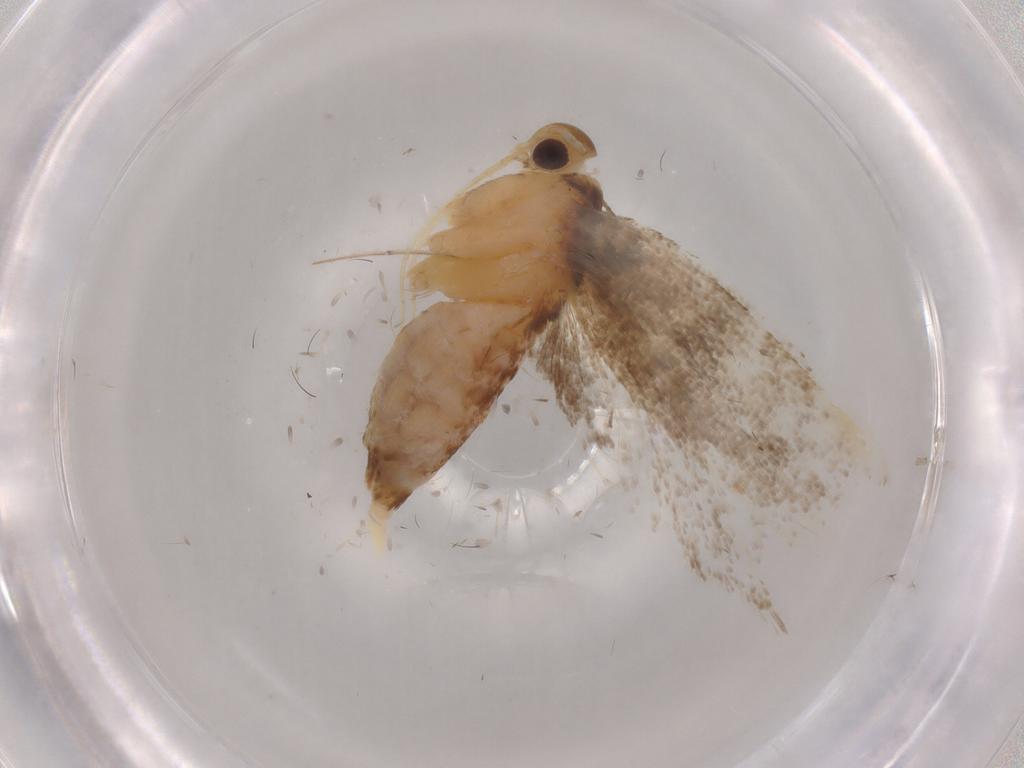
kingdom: Animalia
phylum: Arthropoda
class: Insecta
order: Lepidoptera
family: Lecithoceridae
